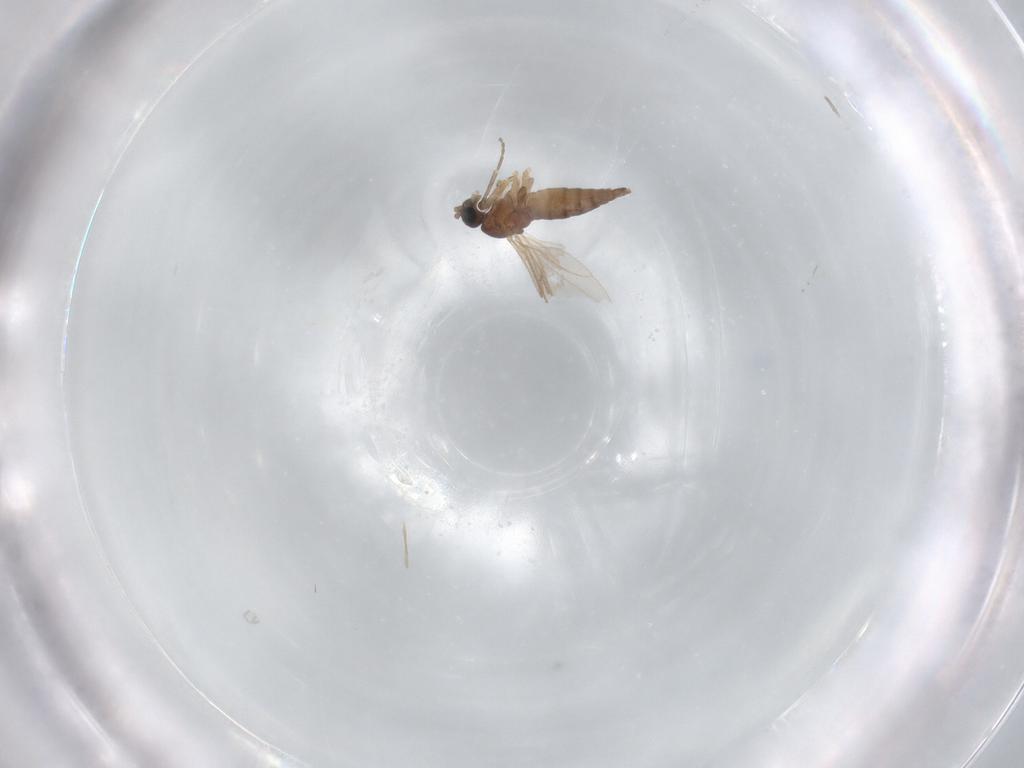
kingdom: Animalia
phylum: Arthropoda
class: Insecta
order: Diptera
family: Sciaridae
